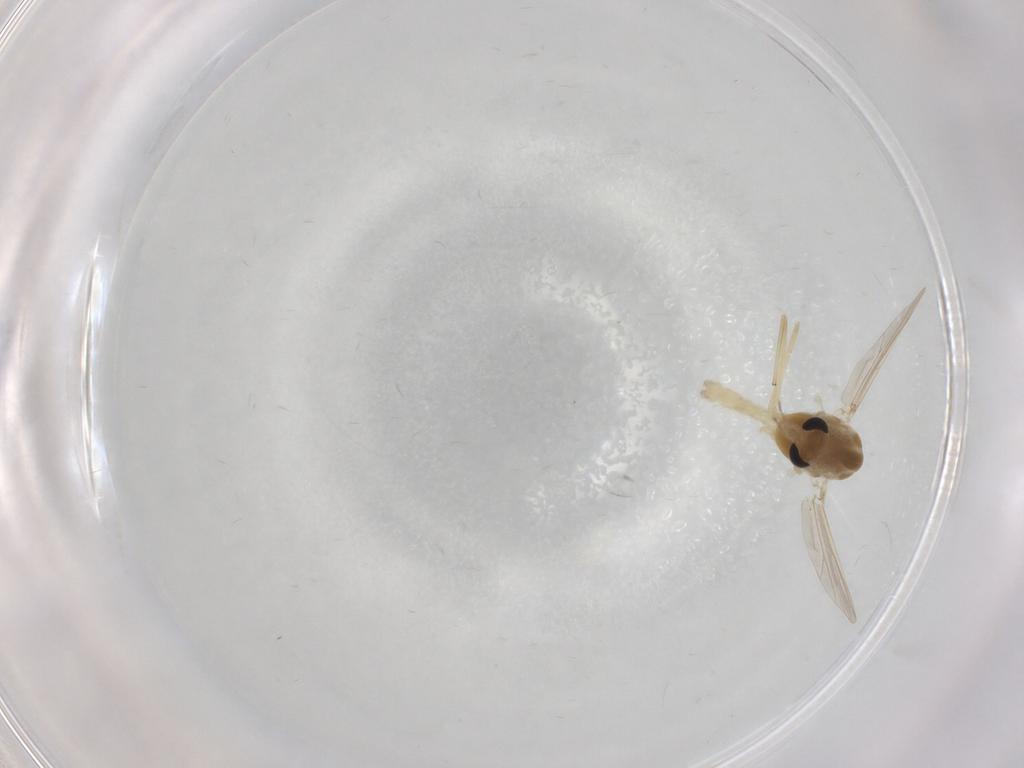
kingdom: Animalia
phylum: Arthropoda
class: Insecta
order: Diptera
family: Chironomidae
